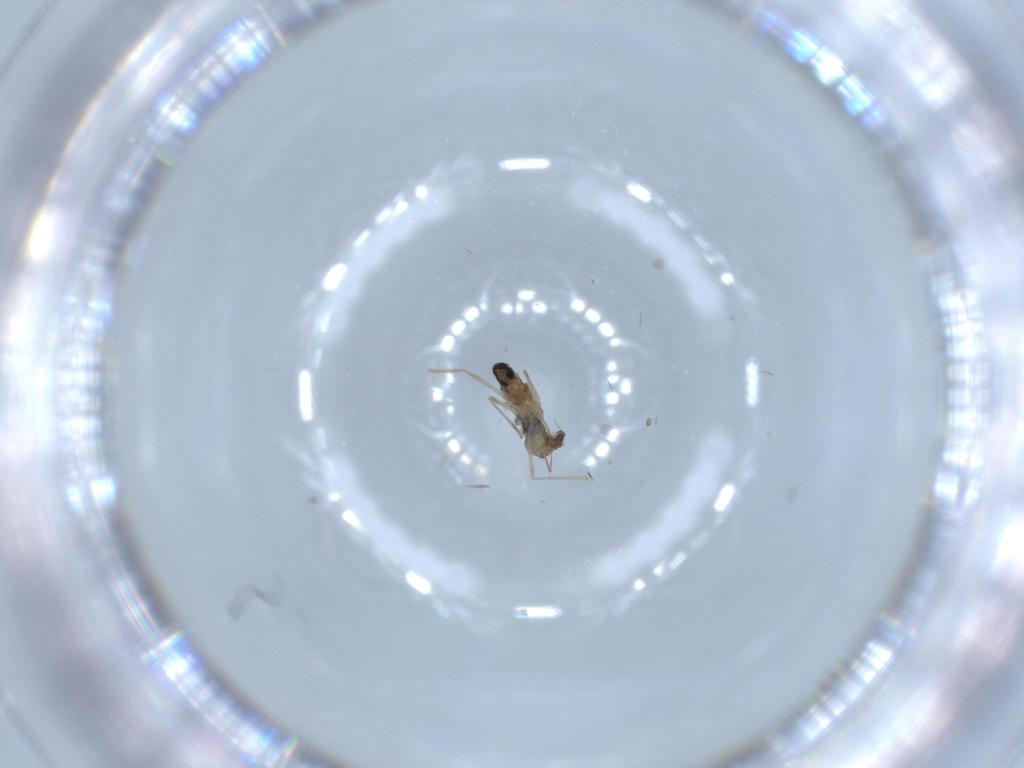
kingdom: Animalia
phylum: Arthropoda
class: Insecta
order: Diptera
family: Cecidomyiidae
